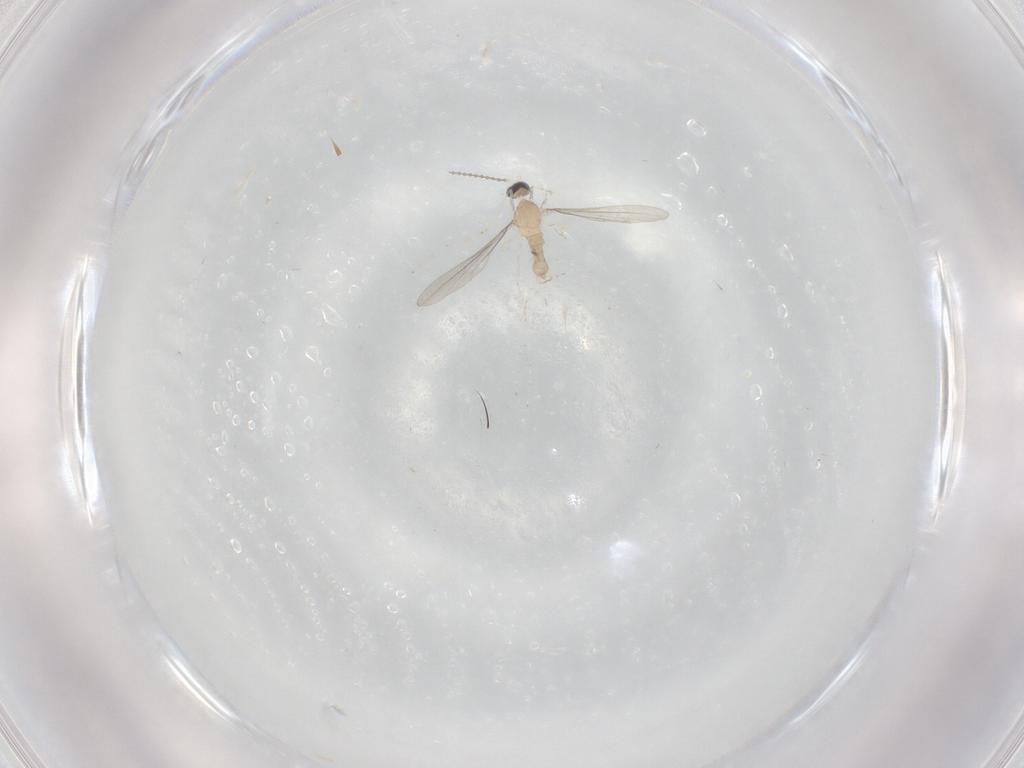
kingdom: Animalia
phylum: Arthropoda
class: Insecta
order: Diptera
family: Cecidomyiidae
